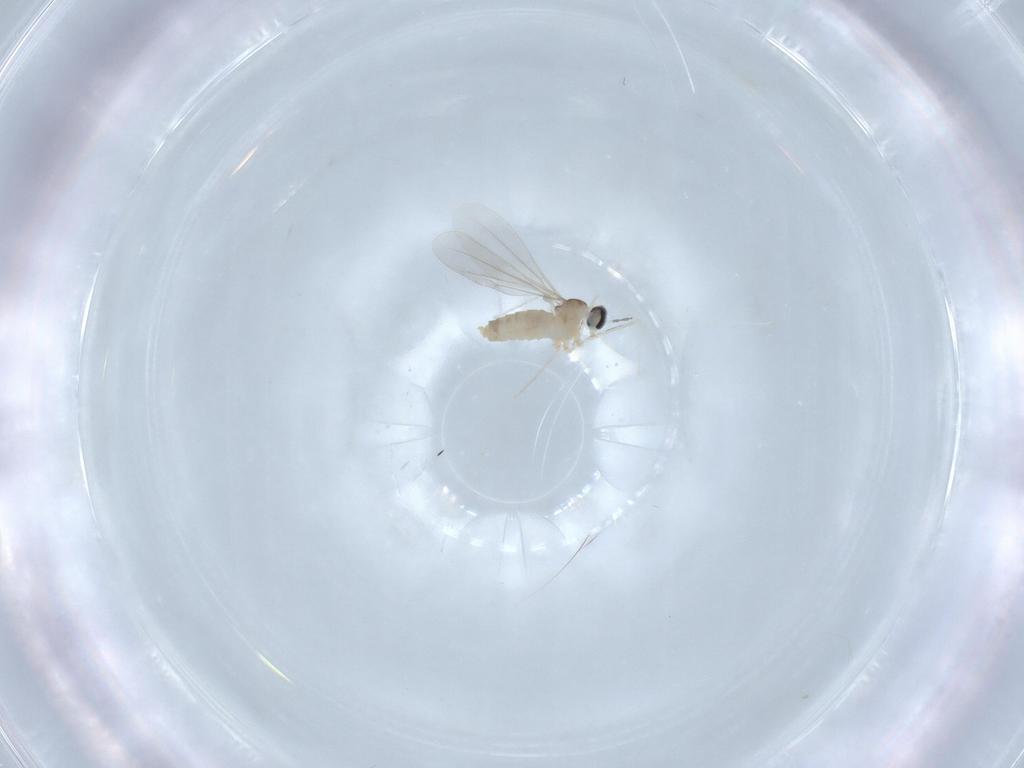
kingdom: Animalia
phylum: Arthropoda
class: Insecta
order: Diptera
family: Cecidomyiidae
